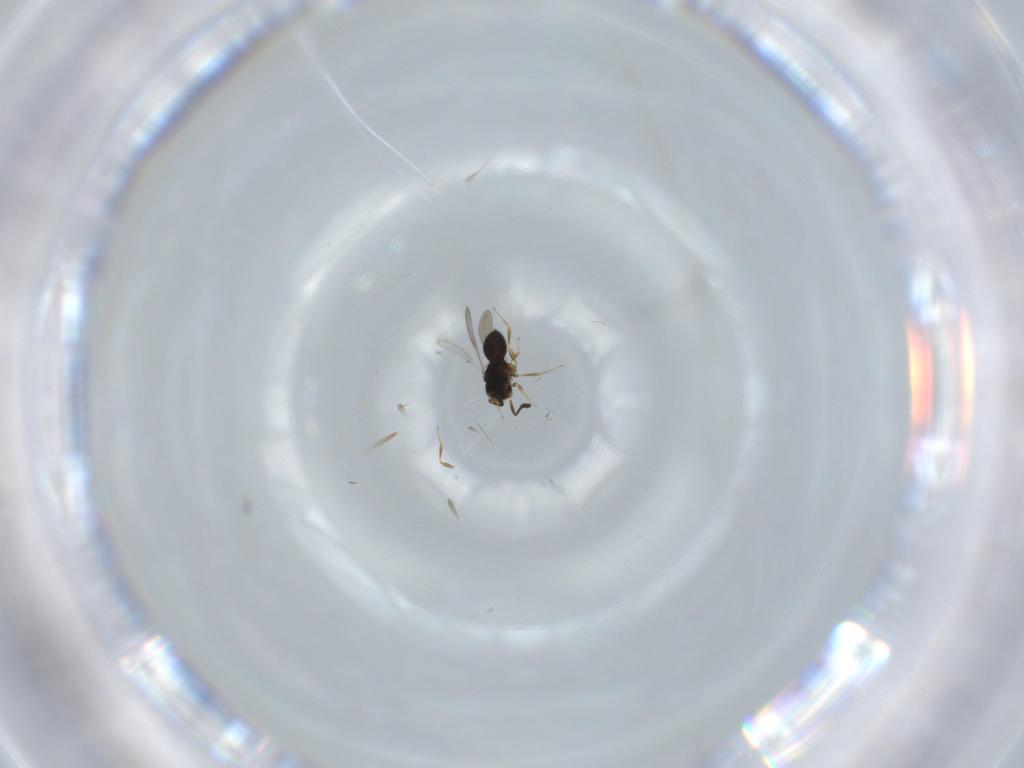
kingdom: Animalia
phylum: Arthropoda
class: Insecta
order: Hymenoptera
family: Scelionidae
